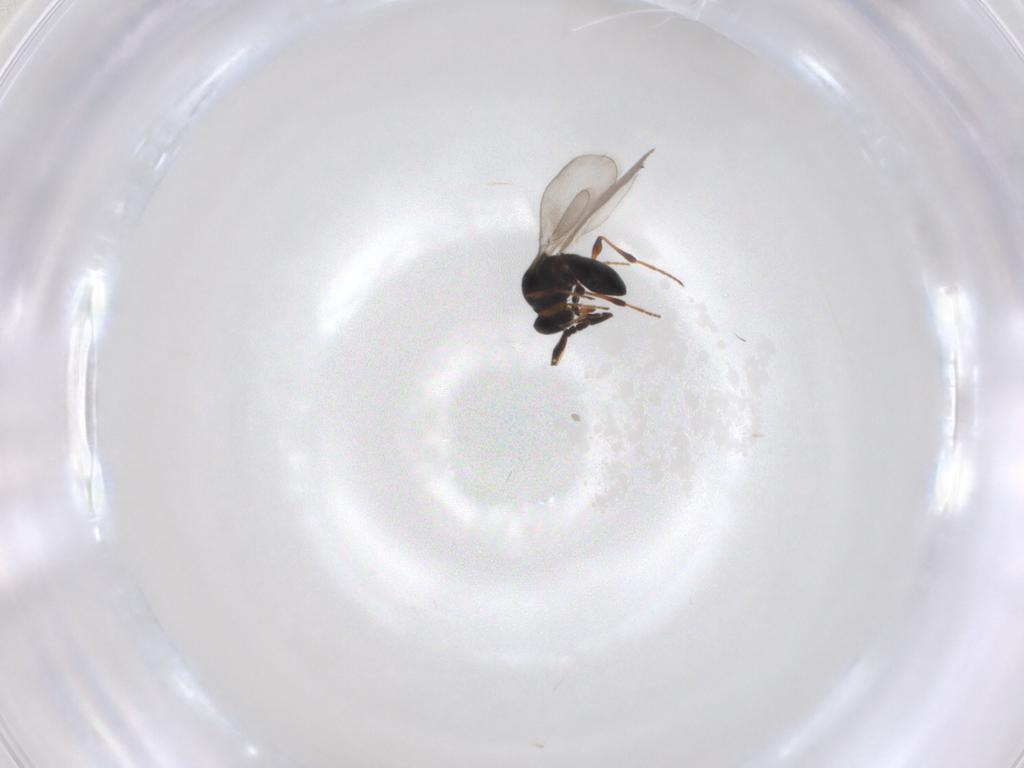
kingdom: Animalia
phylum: Arthropoda
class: Insecta
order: Hymenoptera
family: Platygastridae
